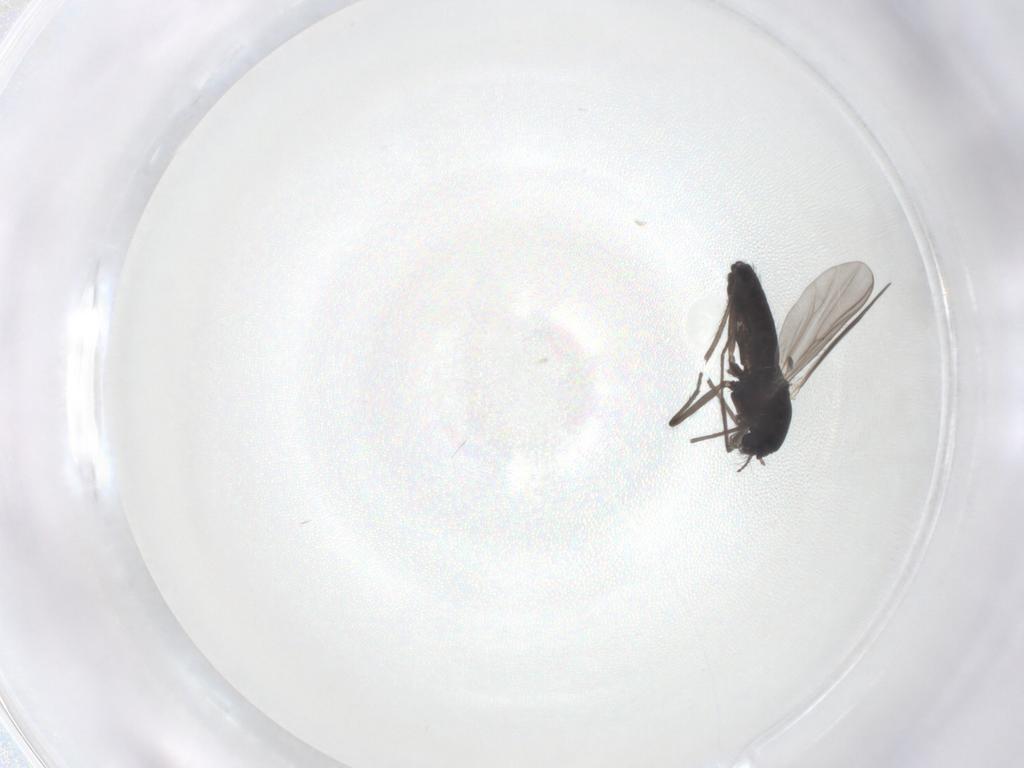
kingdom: Animalia
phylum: Arthropoda
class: Insecta
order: Diptera
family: Chironomidae
